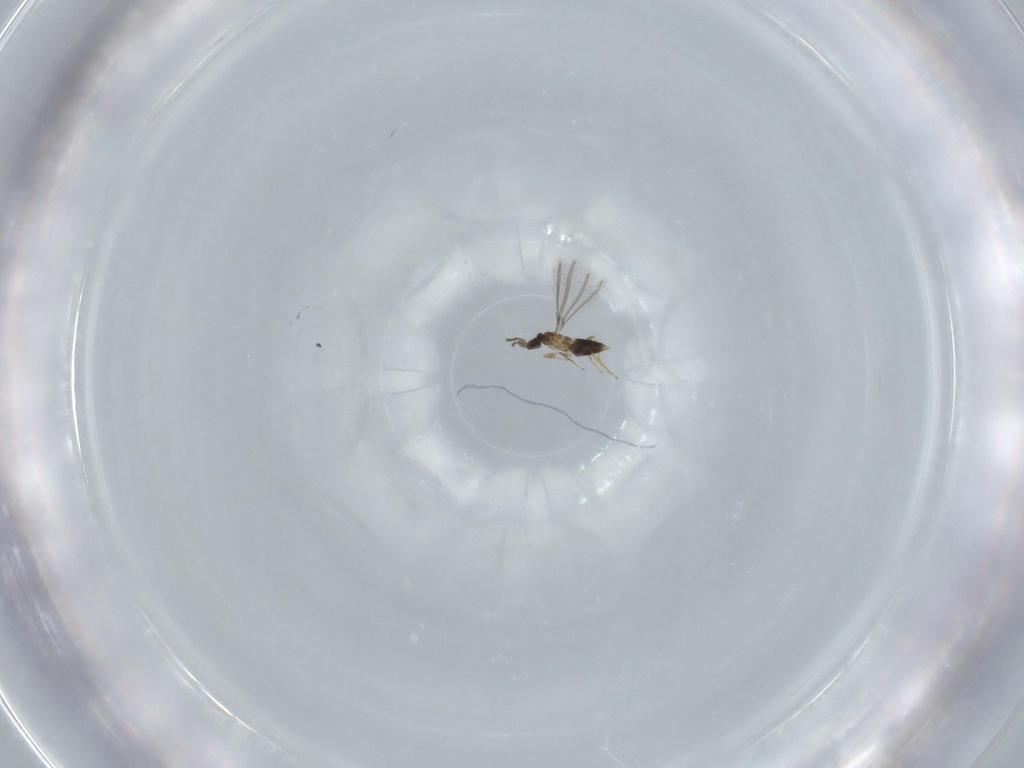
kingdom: Animalia
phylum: Arthropoda
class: Insecta
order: Hymenoptera
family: Mymaridae
